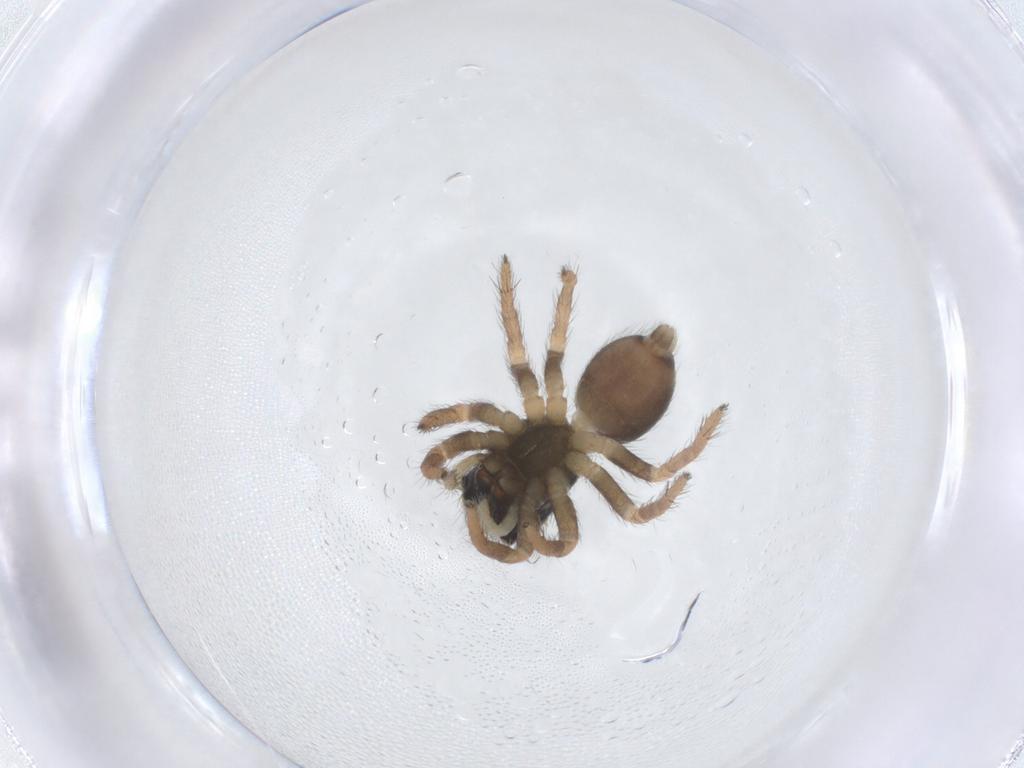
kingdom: Animalia
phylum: Arthropoda
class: Arachnida
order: Araneae
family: Salticidae
